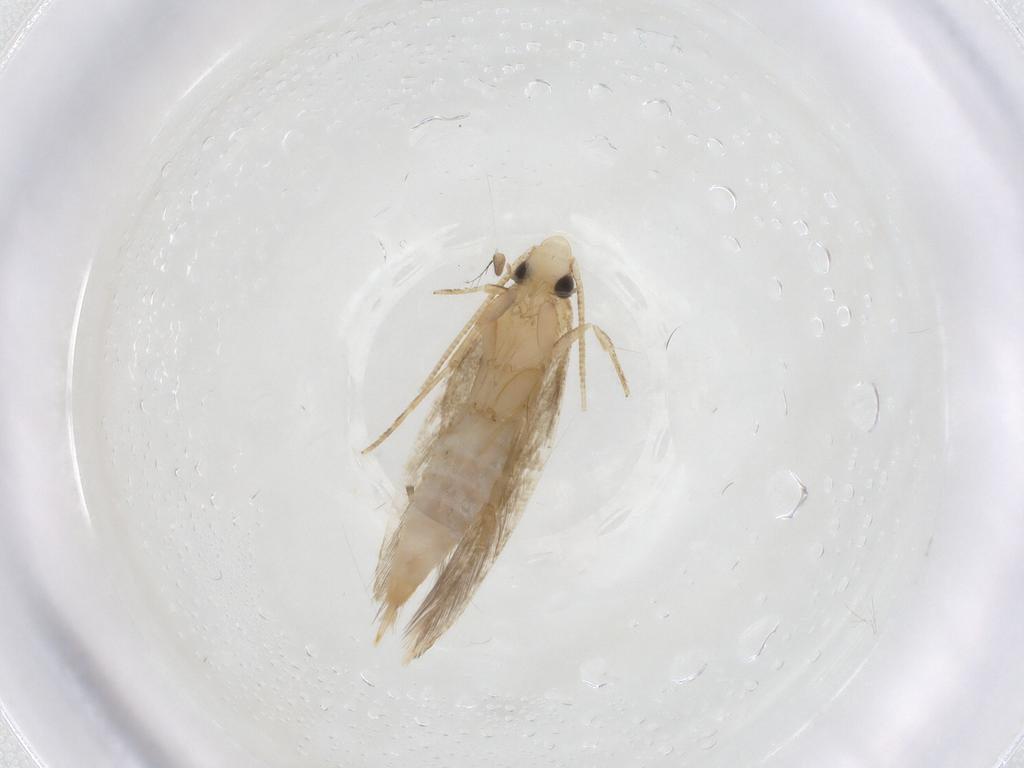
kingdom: Animalia
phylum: Arthropoda
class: Insecta
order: Lepidoptera
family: Tineidae
